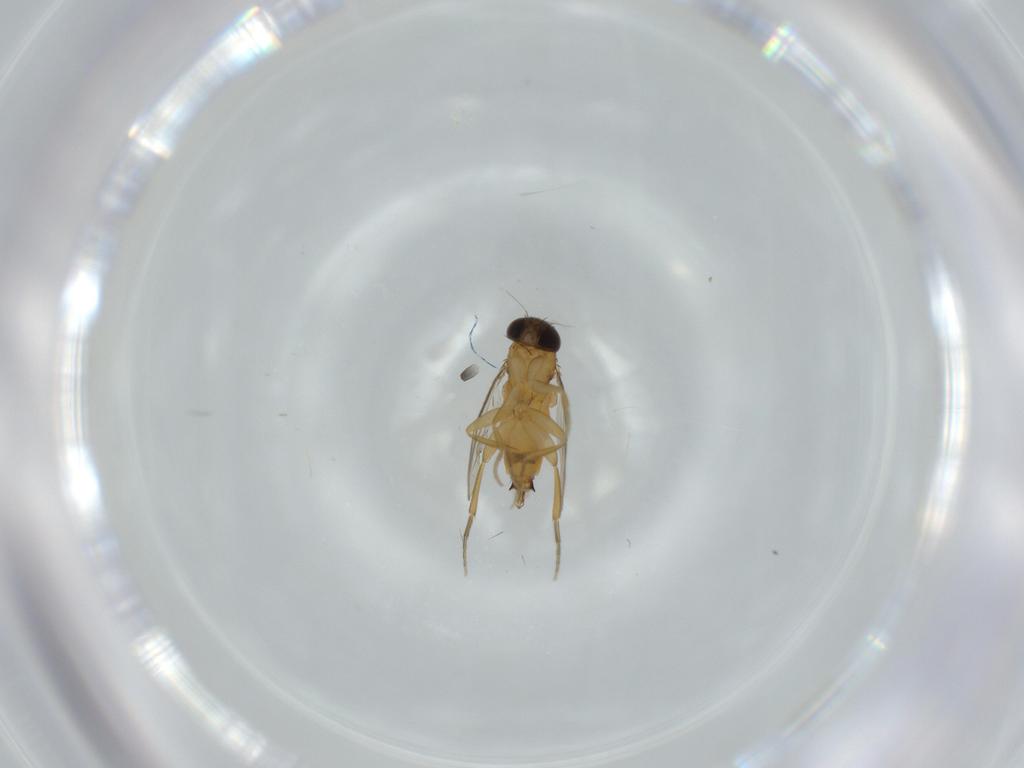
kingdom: Animalia
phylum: Arthropoda
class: Insecta
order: Diptera
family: Phoridae
